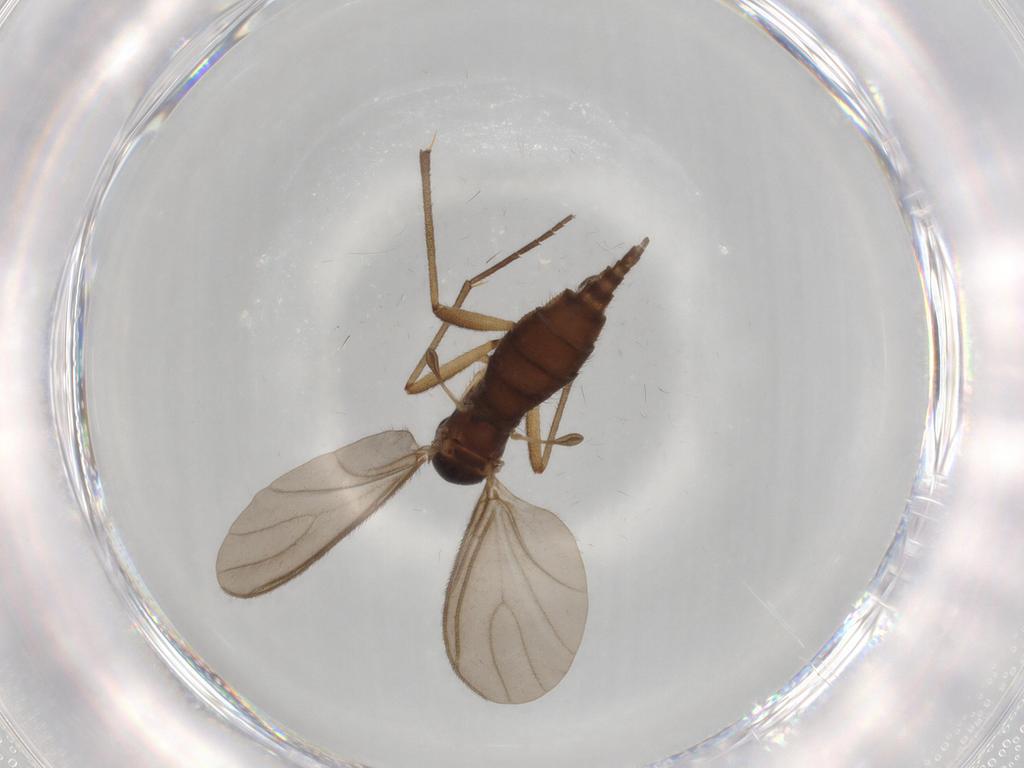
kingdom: Animalia
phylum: Arthropoda
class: Insecta
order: Diptera
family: Sciaridae
